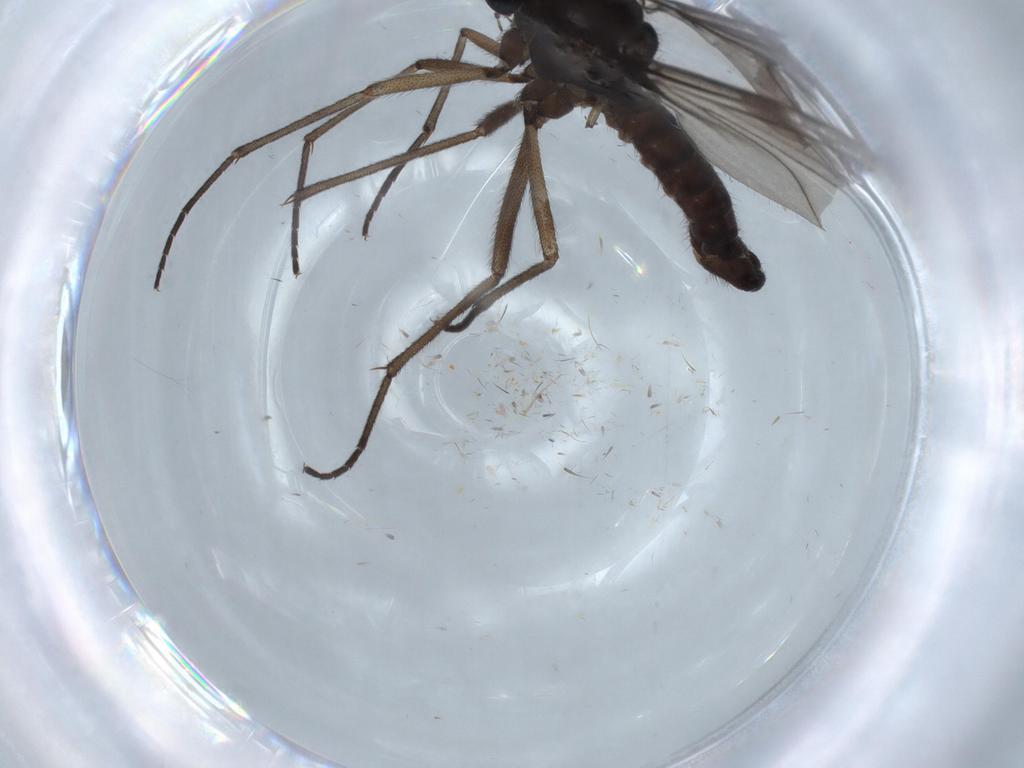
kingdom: Animalia
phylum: Arthropoda
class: Insecta
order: Diptera
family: Sciaridae
